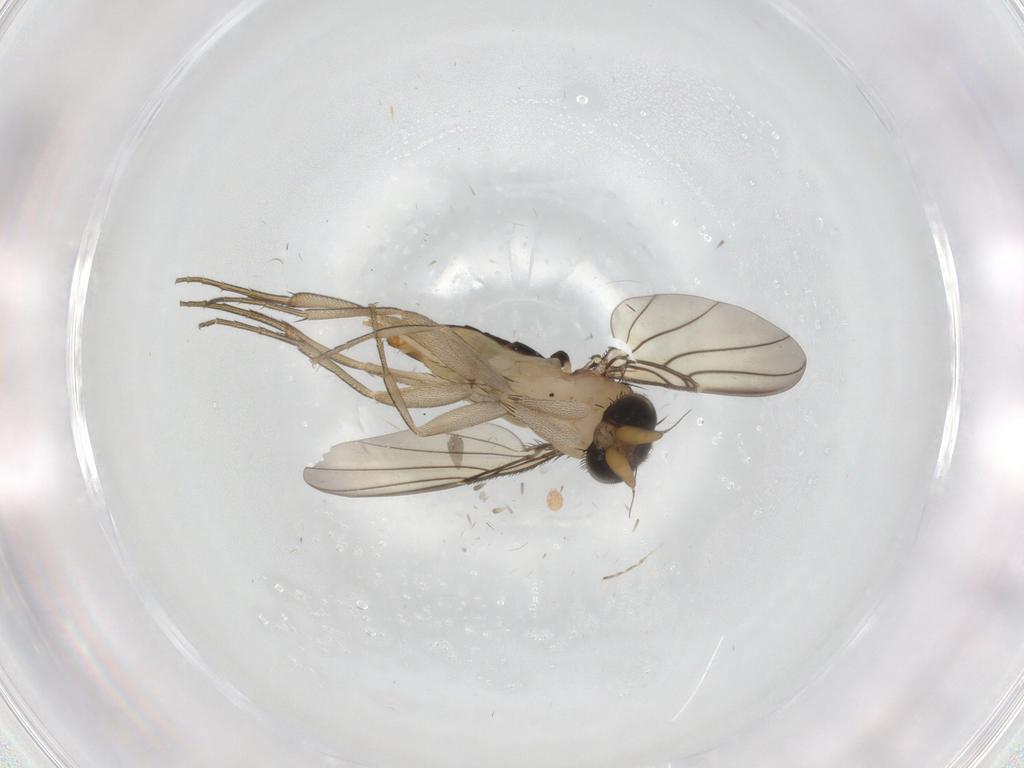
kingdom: Animalia
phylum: Arthropoda
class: Insecta
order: Diptera
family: Phoridae
